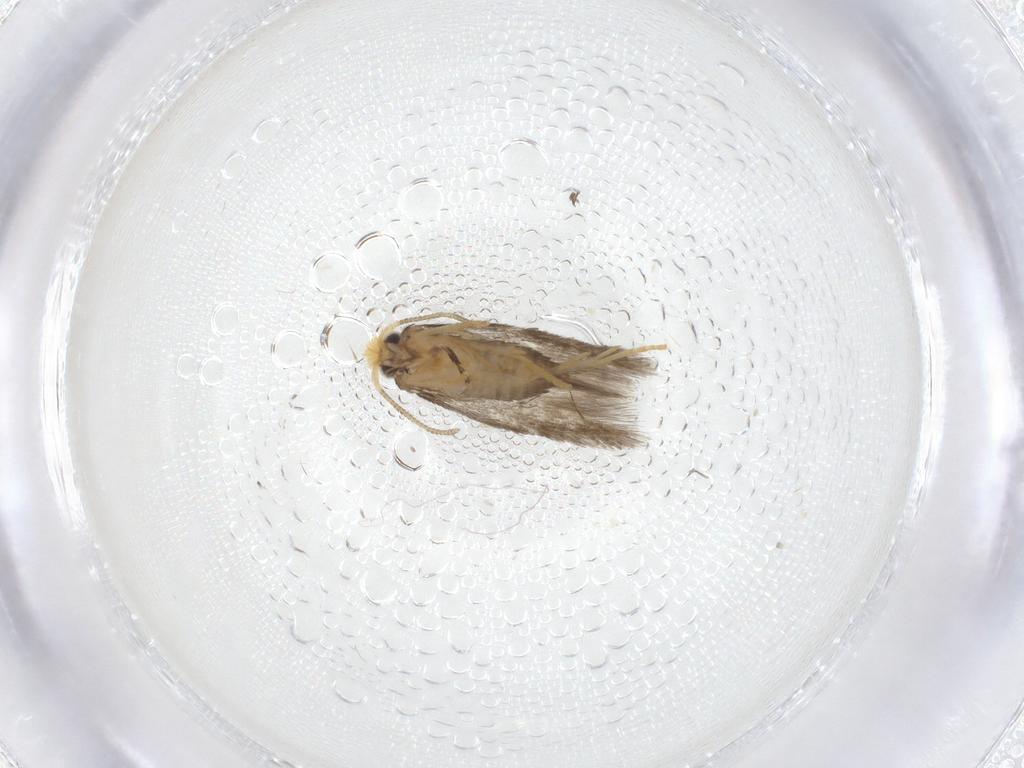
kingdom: Animalia
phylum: Arthropoda
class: Insecta
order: Lepidoptera
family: Nepticulidae
